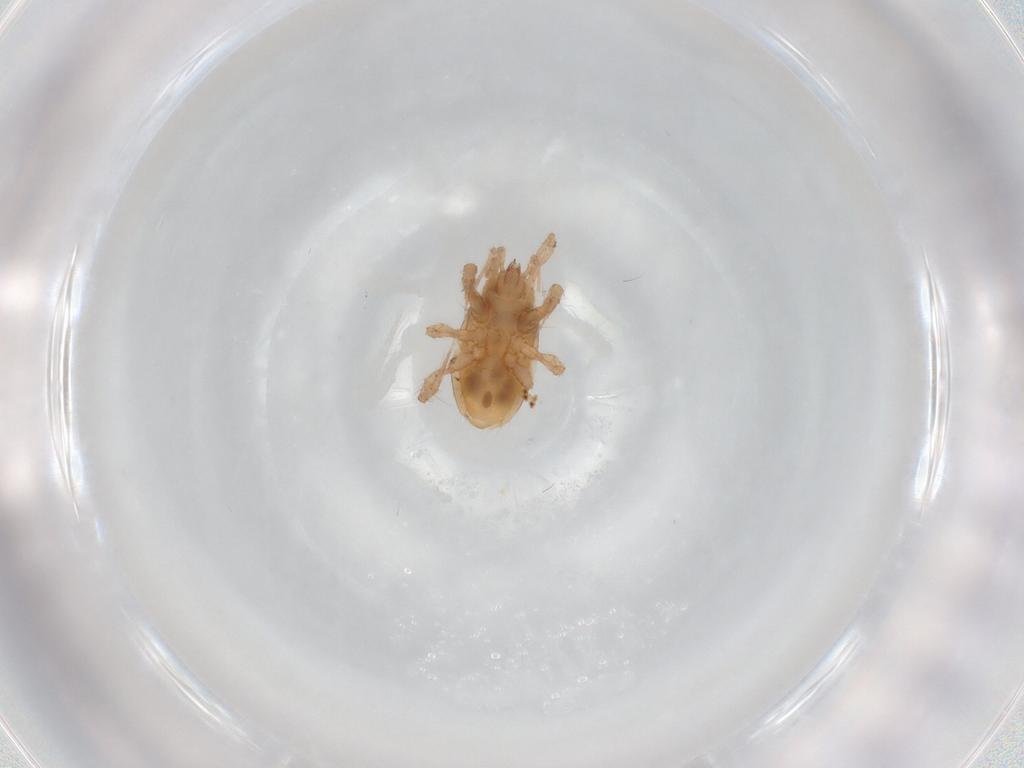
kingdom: Animalia
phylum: Arthropoda
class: Arachnida
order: Trombidiformes
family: Eupodidae
